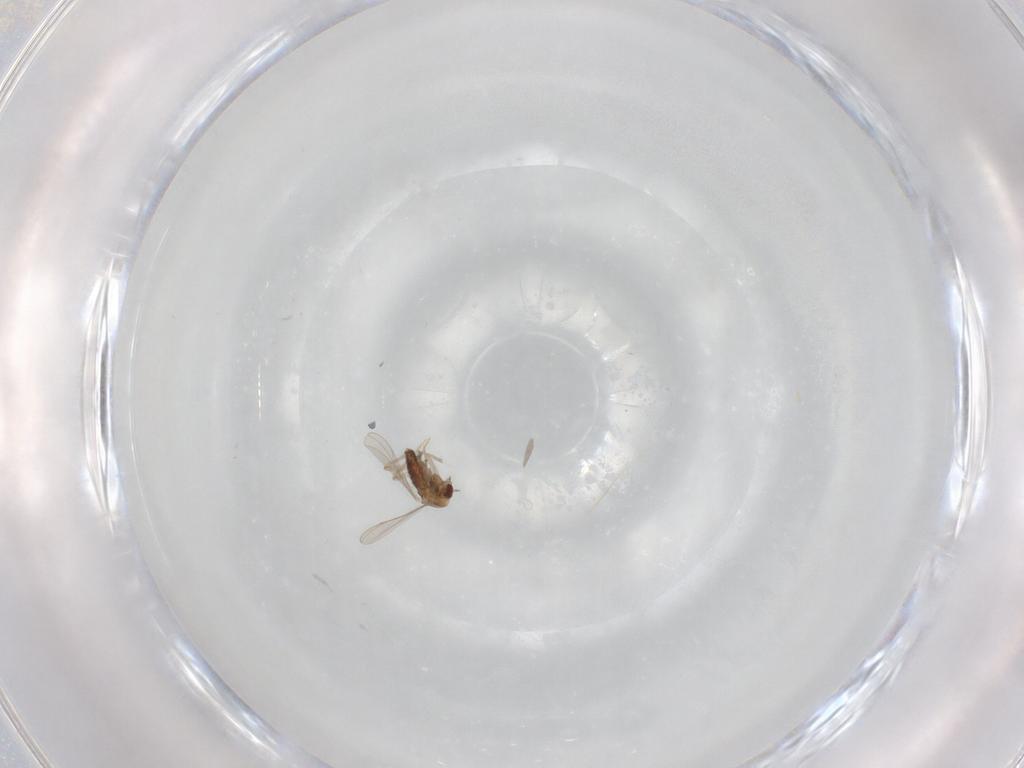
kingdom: Animalia
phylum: Arthropoda
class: Insecta
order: Diptera
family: Chironomidae
